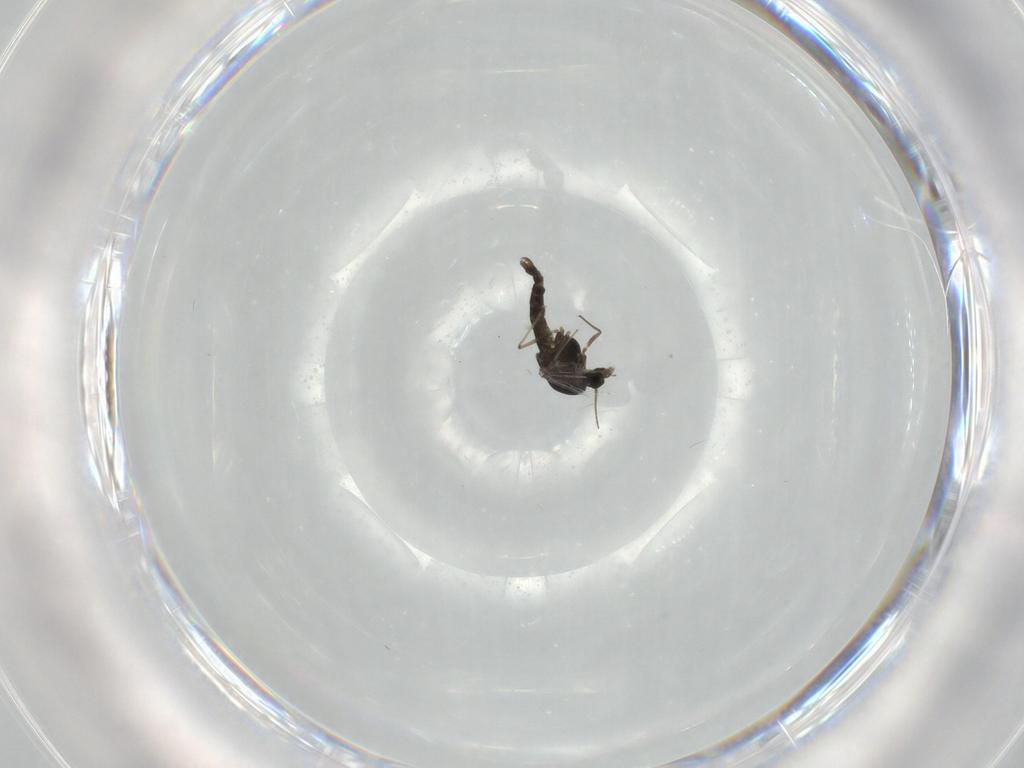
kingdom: Animalia
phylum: Arthropoda
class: Insecta
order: Diptera
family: Chironomidae
